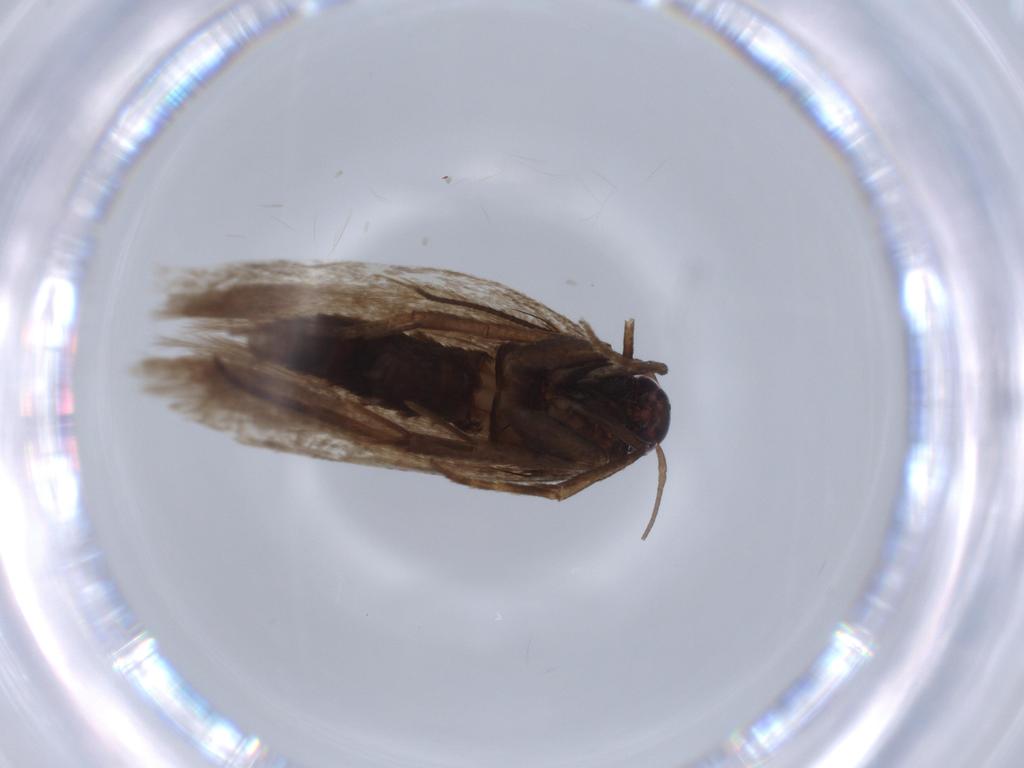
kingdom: Animalia
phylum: Arthropoda
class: Insecta
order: Lepidoptera
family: Gelechiidae
